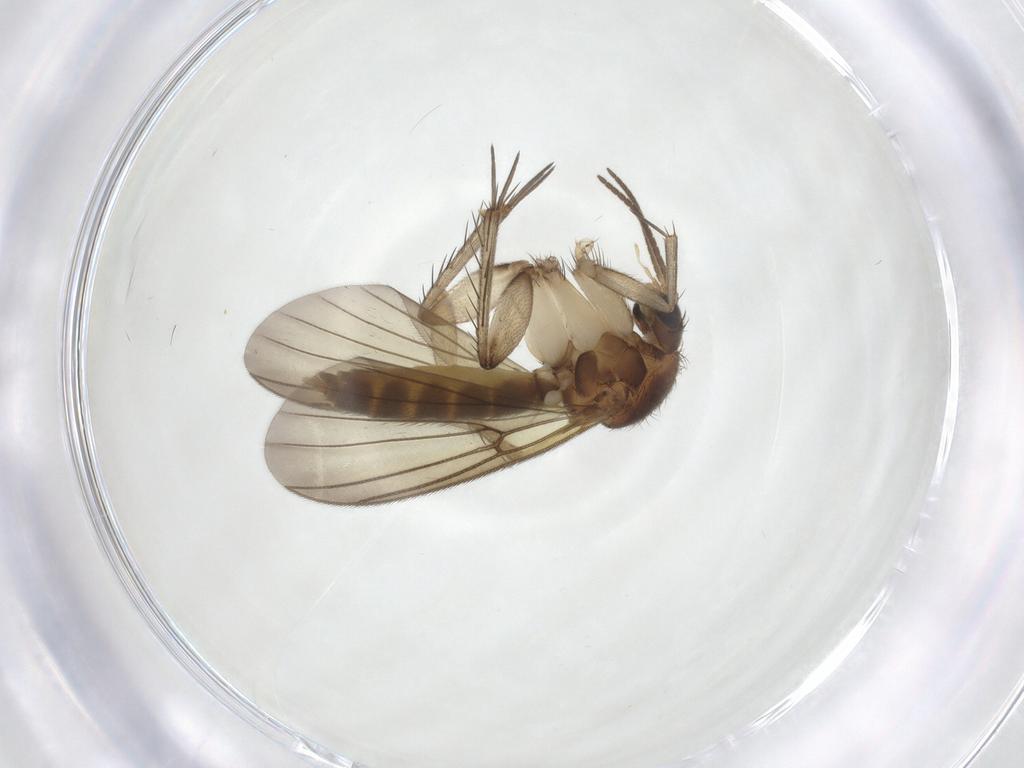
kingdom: Animalia
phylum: Arthropoda
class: Insecta
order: Diptera
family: Mycetophilidae
